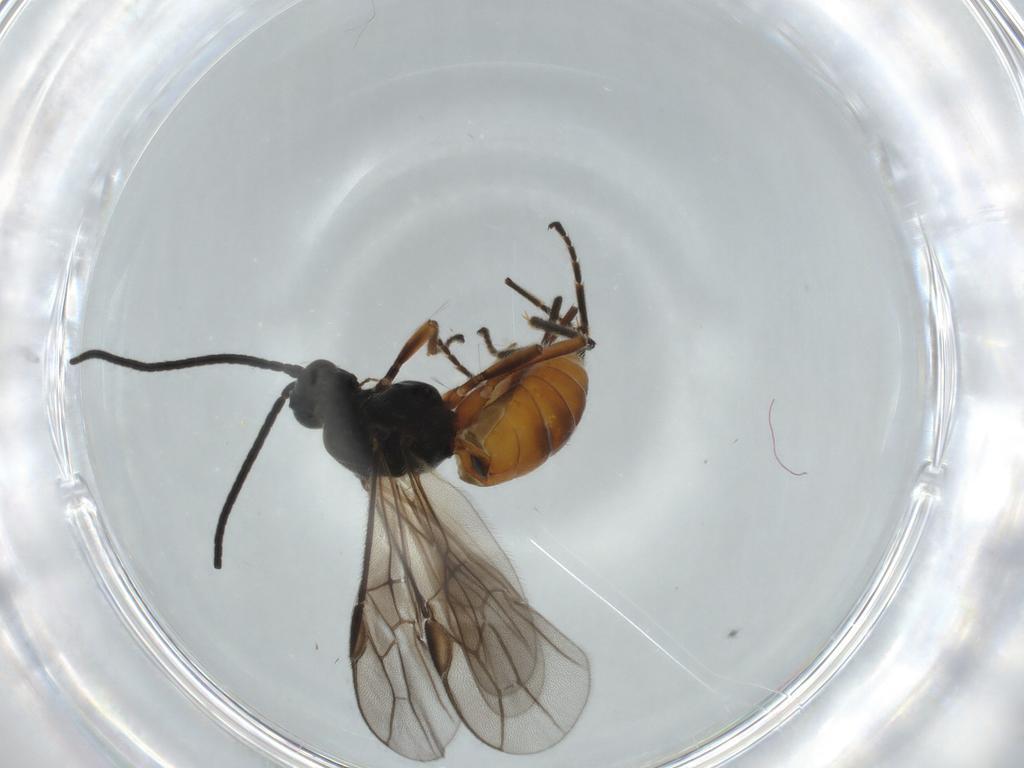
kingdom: Animalia
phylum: Arthropoda
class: Insecta
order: Hymenoptera
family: Braconidae
